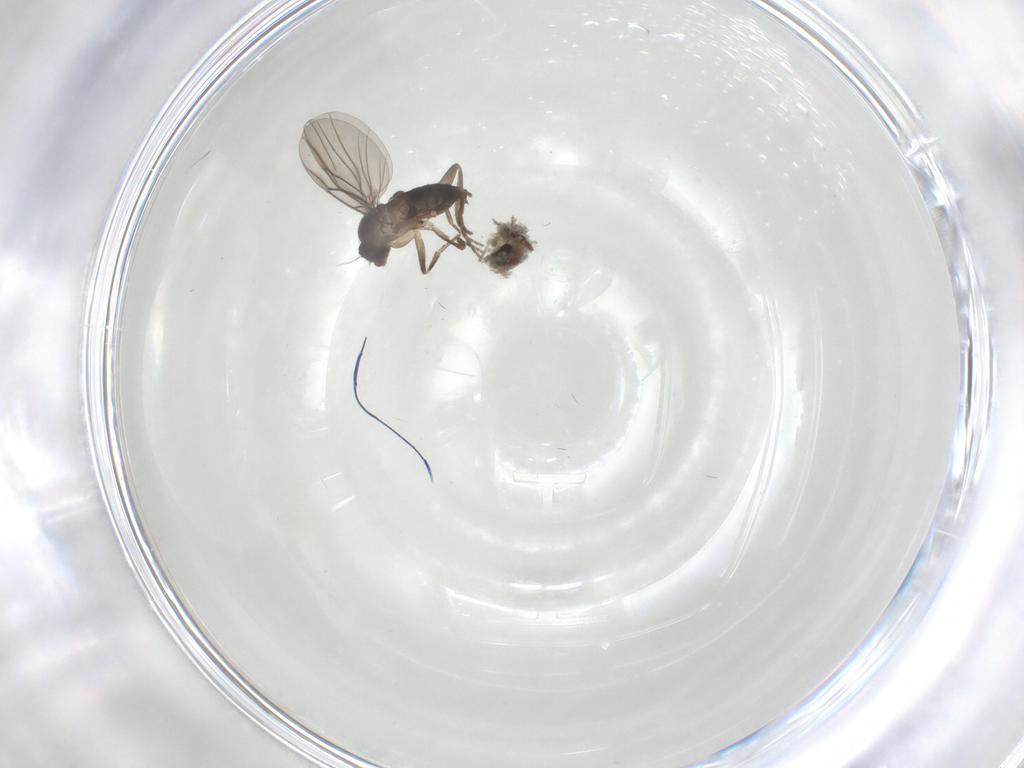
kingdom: Animalia
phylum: Arthropoda
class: Insecta
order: Diptera
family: Phoridae
